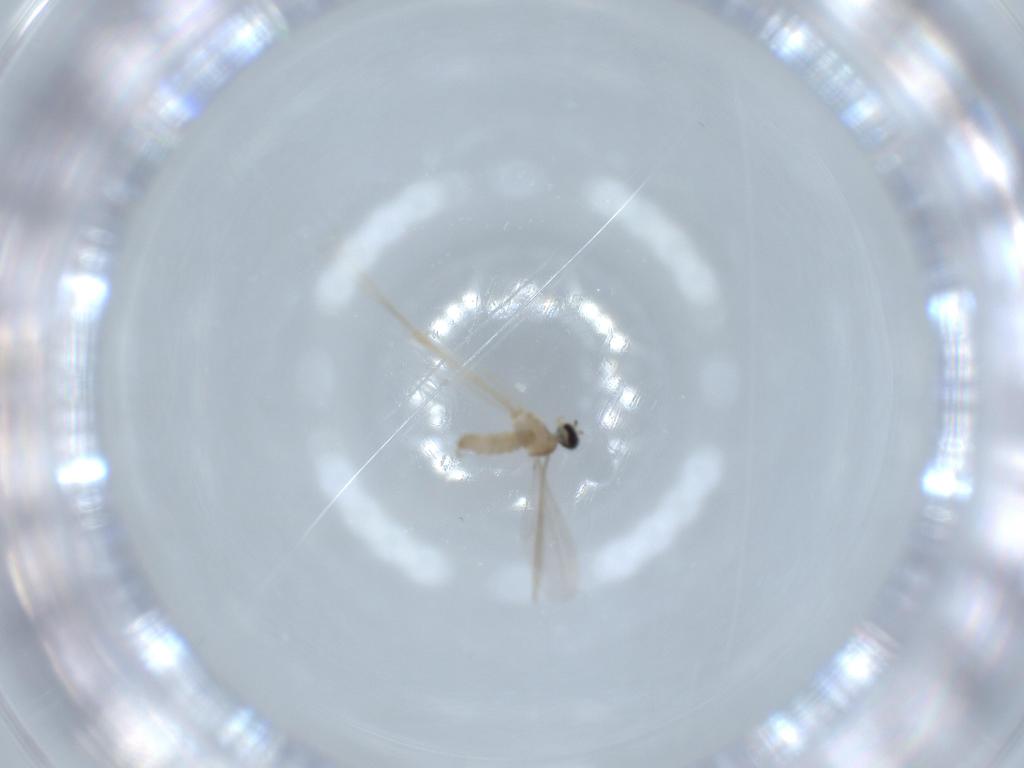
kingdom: Animalia
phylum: Arthropoda
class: Insecta
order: Diptera
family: Cecidomyiidae
